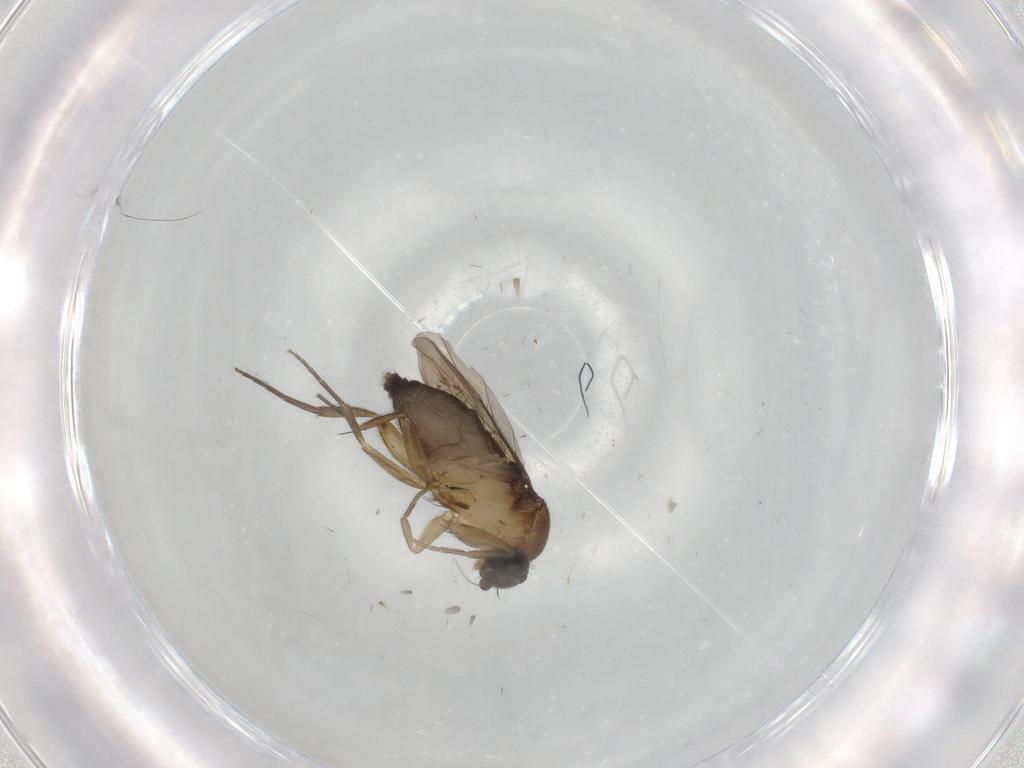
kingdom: Animalia
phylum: Arthropoda
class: Insecta
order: Diptera
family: Phoridae
